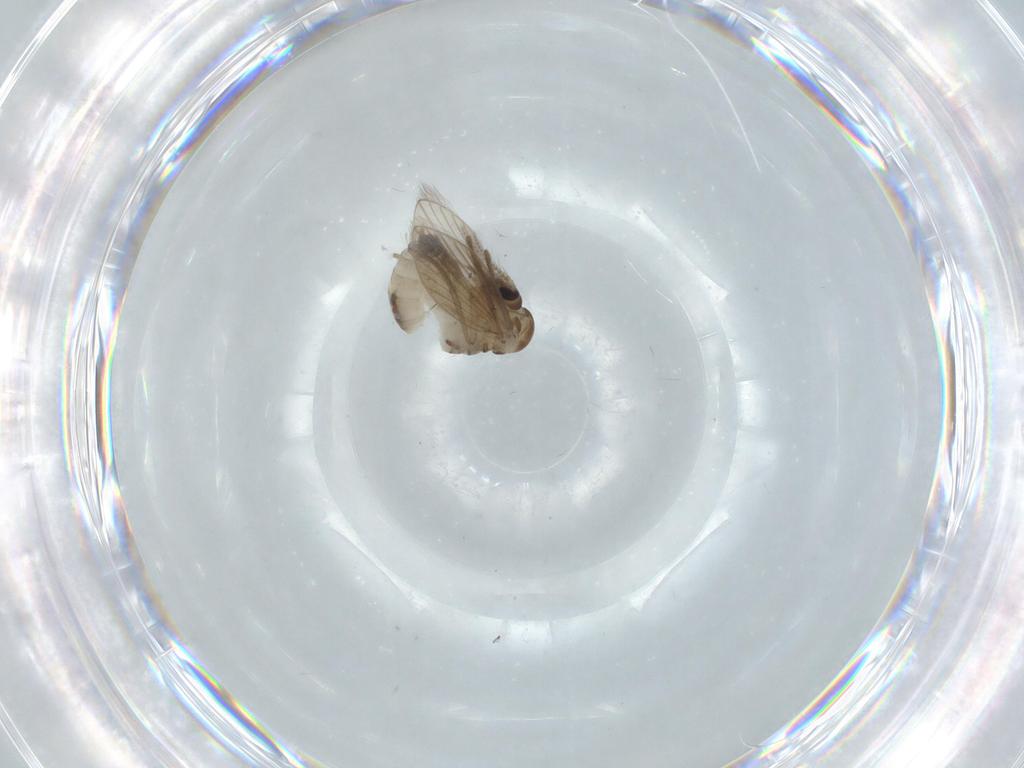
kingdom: Animalia
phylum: Arthropoda
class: Insecta
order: Diptera
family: Psychodidae
